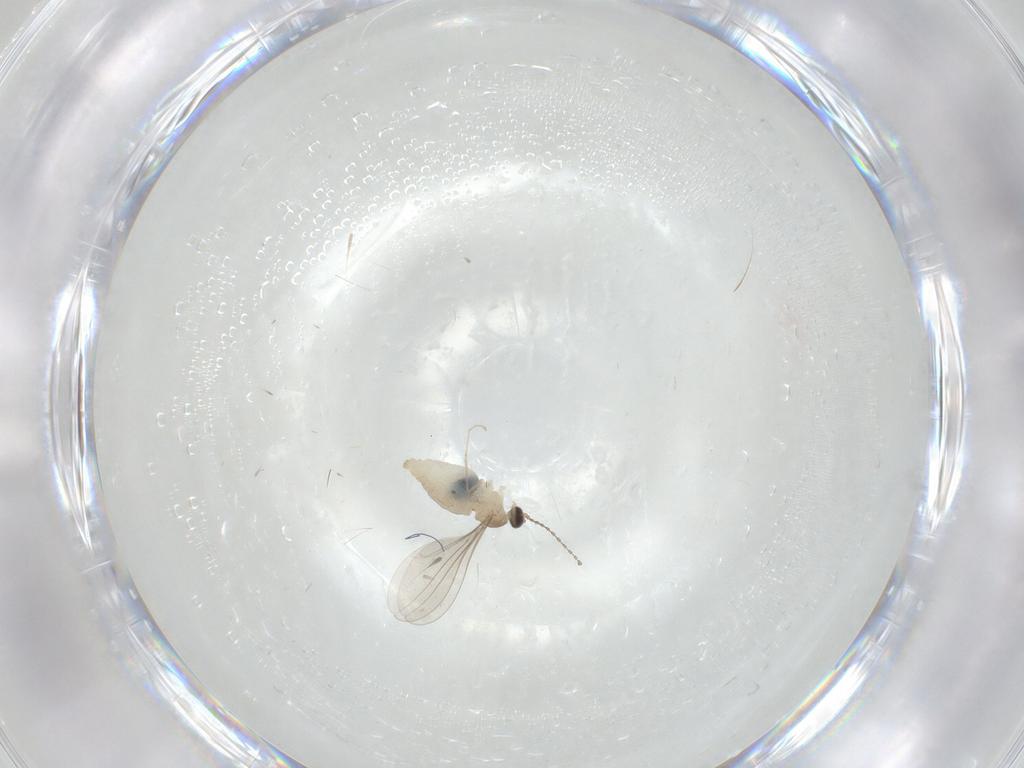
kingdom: Animalia
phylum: Arthropoda
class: Insecta
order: Diptera
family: Cecidomyiidae
